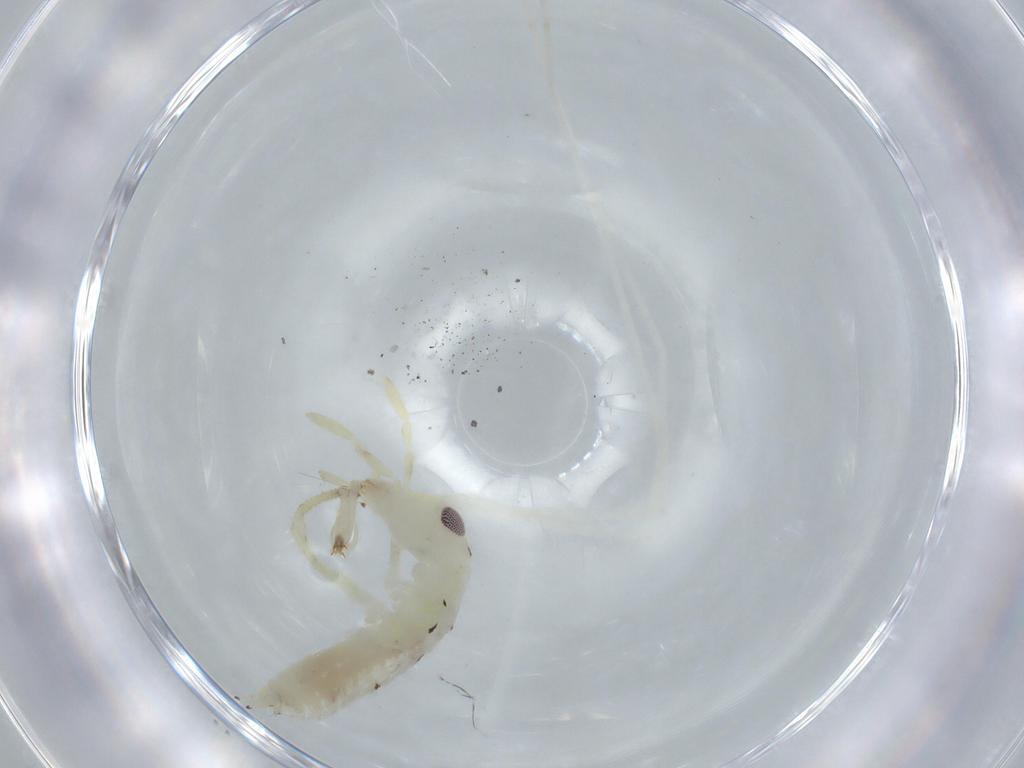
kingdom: Animalia
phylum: Arthropoda
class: Insecta
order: Orthoptera
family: Oecanthidae
